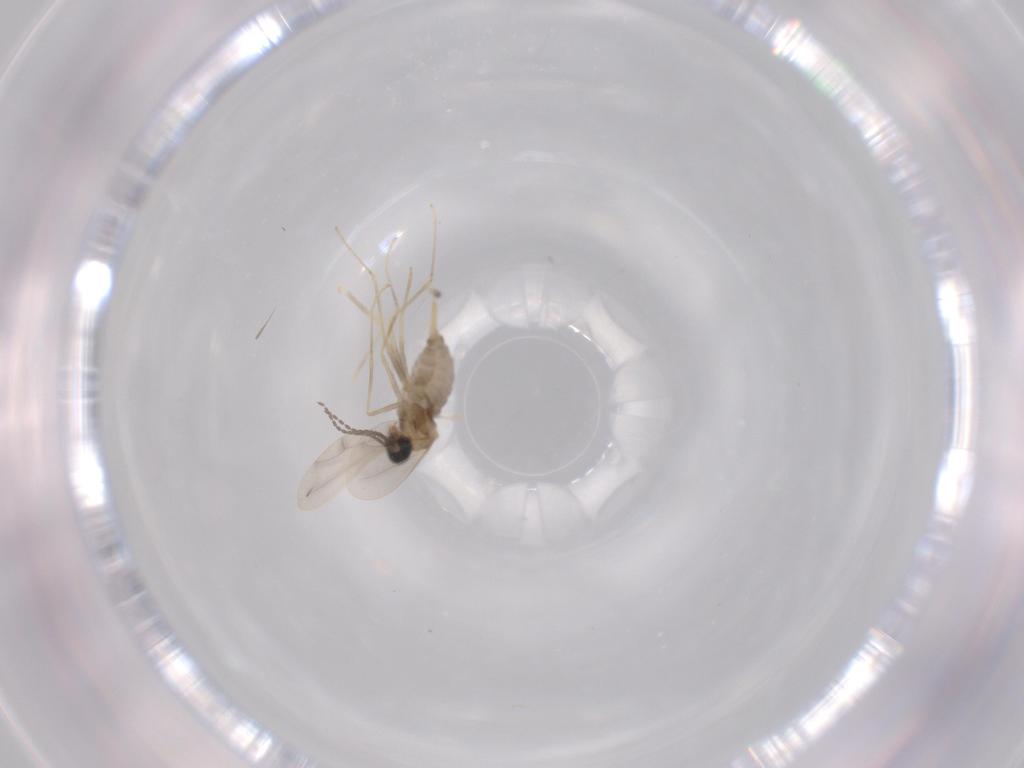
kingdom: Animalia
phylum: Arthropoda
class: Insecta
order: Diptera
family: Cecidomyiidae
